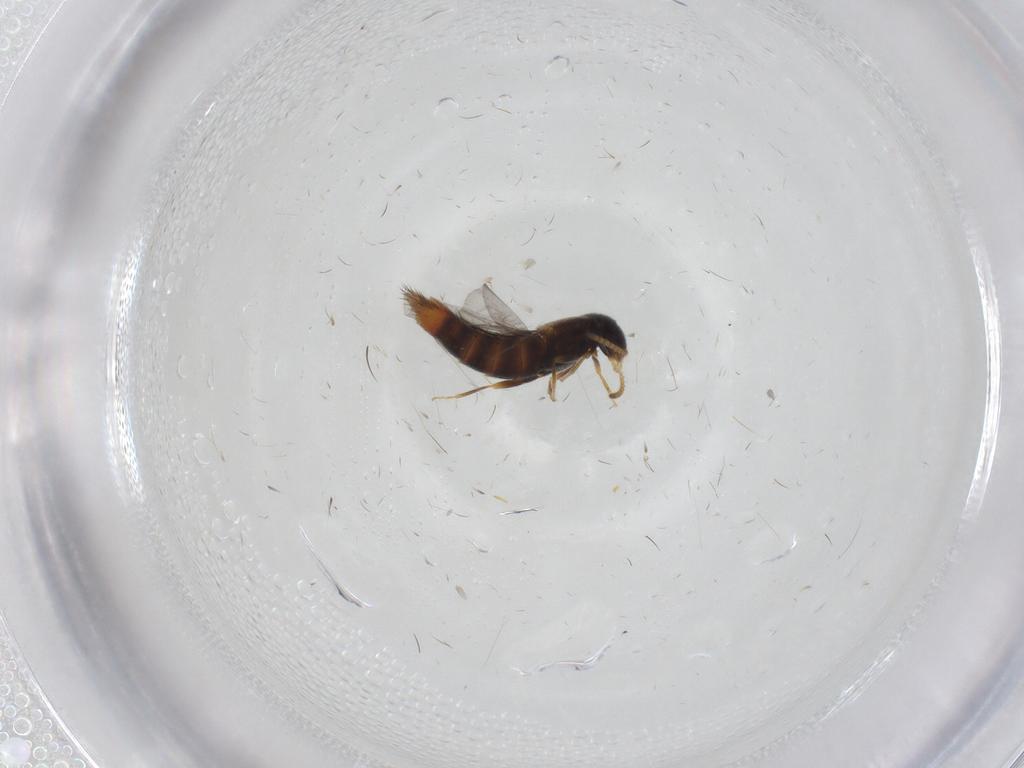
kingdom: Animalia
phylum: Arthropoda
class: Insecta
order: Coleoptera
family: Staphylinidae
